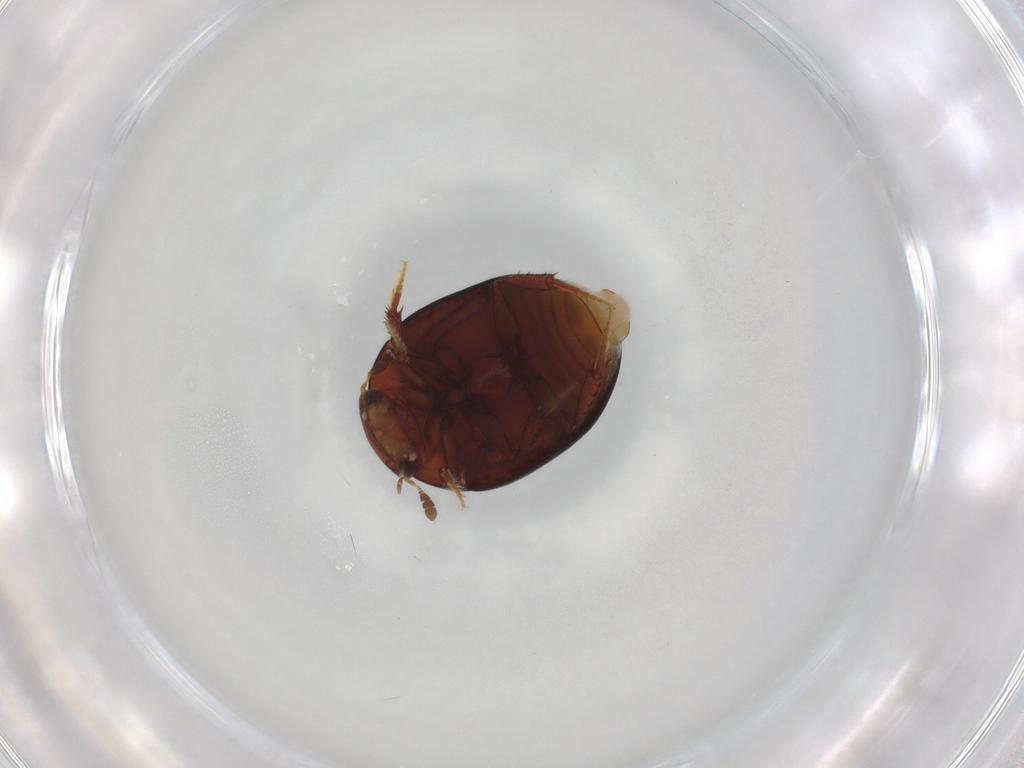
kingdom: Animalia
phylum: Arthropoda
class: Insecta
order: Coleoptera
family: Hydrophilidae
